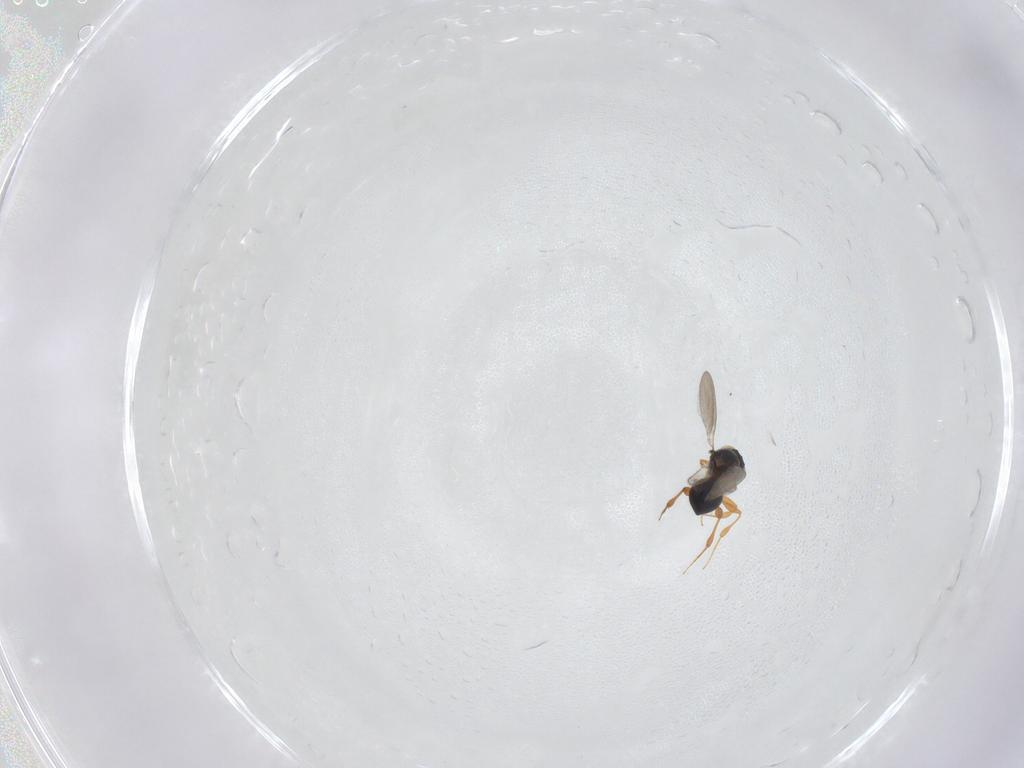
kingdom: Animalia
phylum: Arthropoda
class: Insecta
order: Hymenoptera
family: Platygastridae
